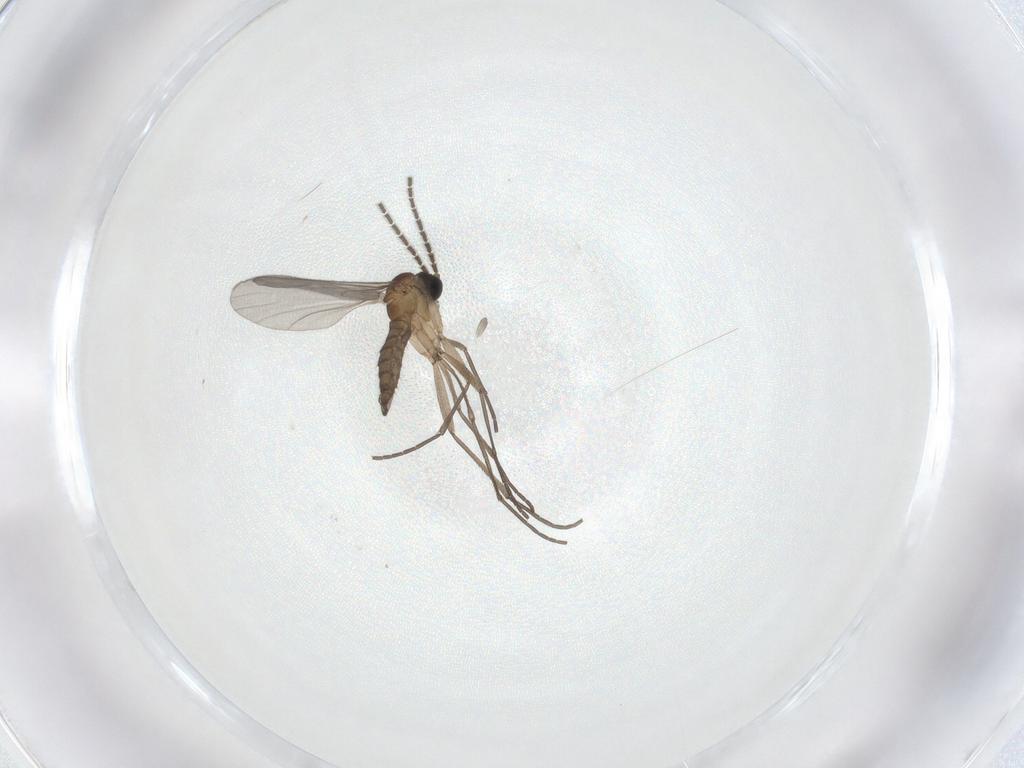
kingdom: Animalia
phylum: Arthropoda
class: Insecta
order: Diptera
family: Sciaridae
